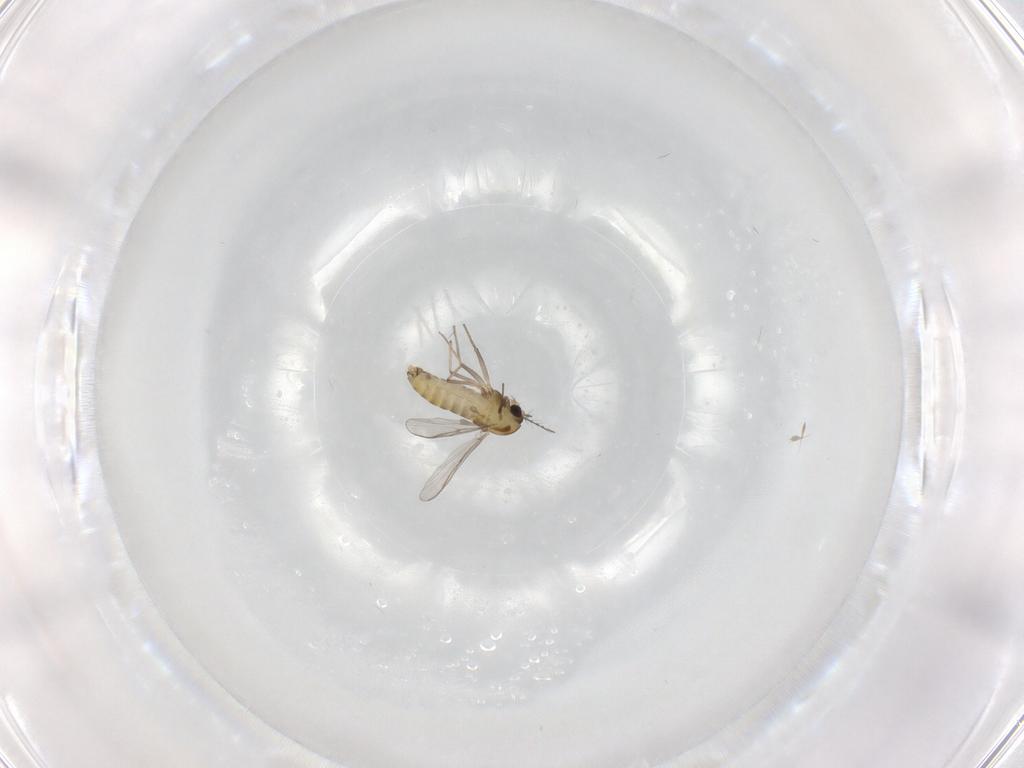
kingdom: Animalia
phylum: Arthropoda
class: Insecta
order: Diptera
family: Chironomidae
